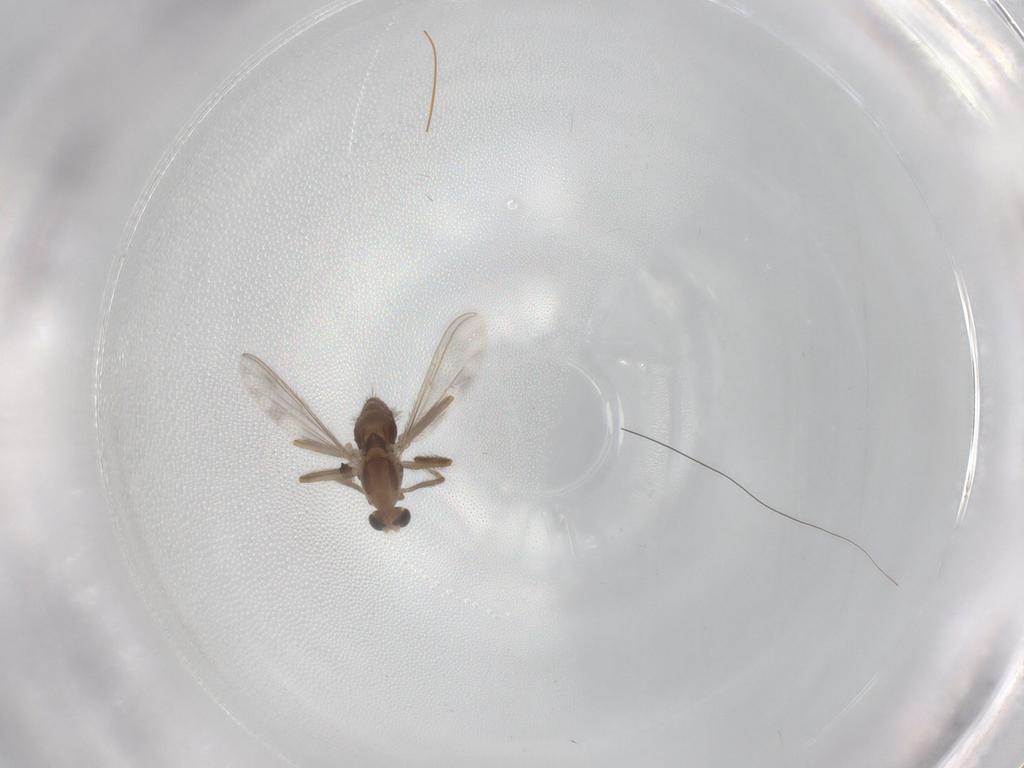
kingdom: Animalia
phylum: Arthropoda
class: Insecta
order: Diptera
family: Chironomidae
